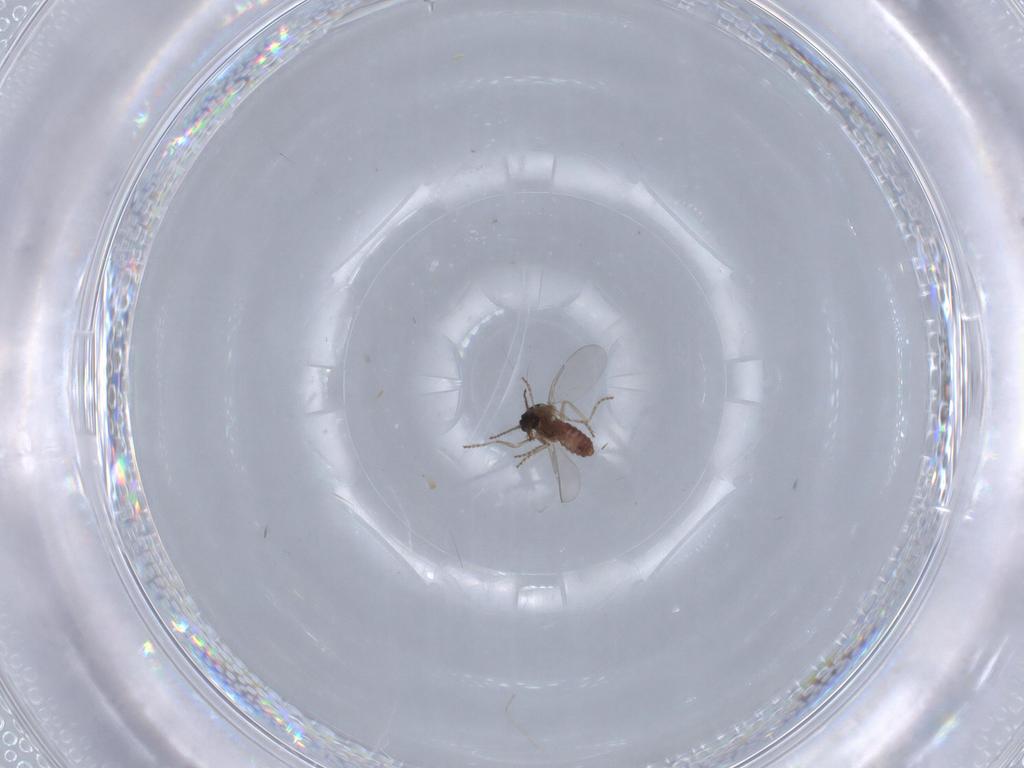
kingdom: Animalia
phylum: Arthropoda
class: Insecta
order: Diptera
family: Ceratopogonidae
